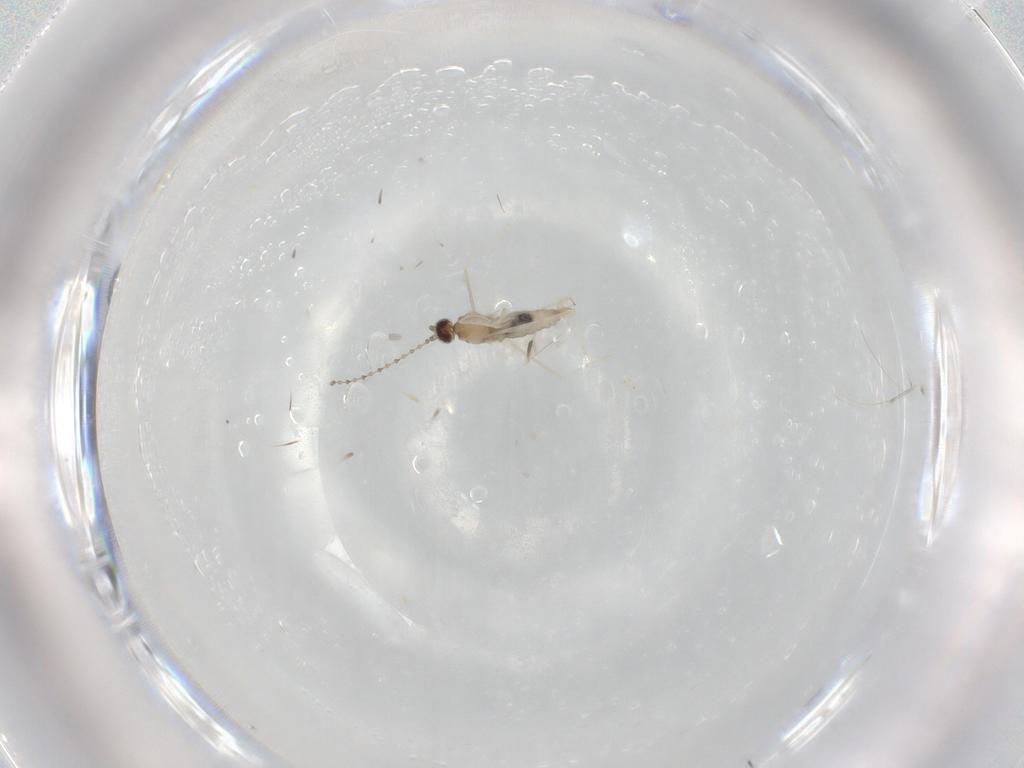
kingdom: Animalia
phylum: Arthropoda
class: Insecta
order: Diptera
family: Cecidomyiidae
